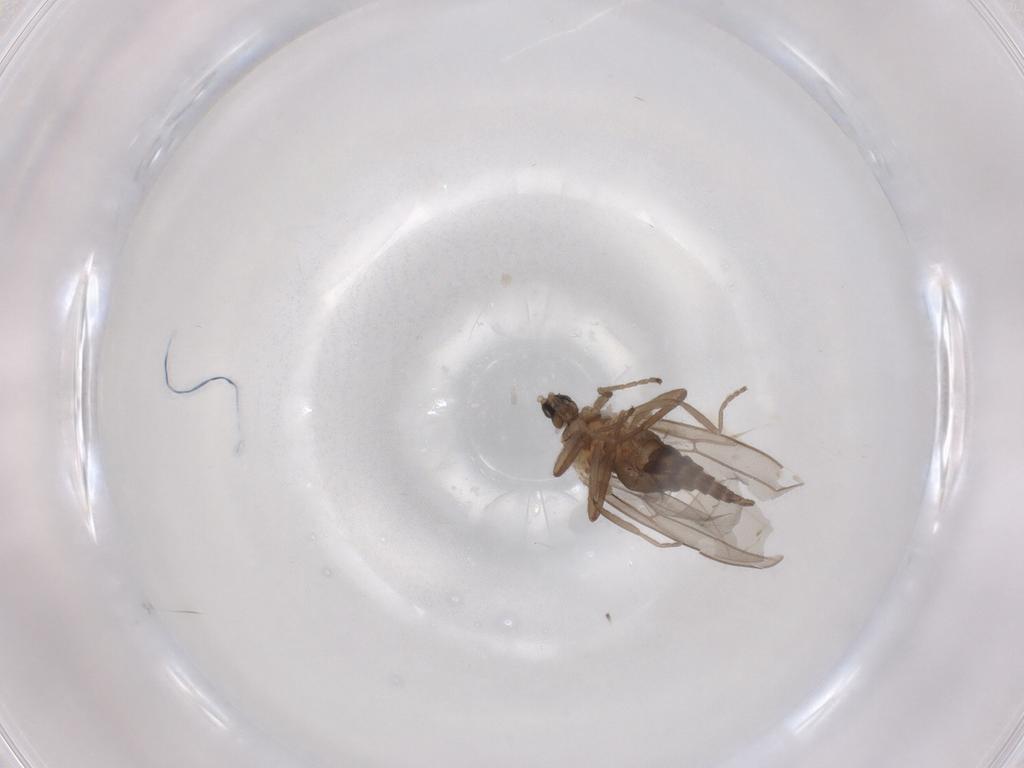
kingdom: Animalia
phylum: Arthropoda
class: Insecta
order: Diptera
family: Cecidomyiidae
